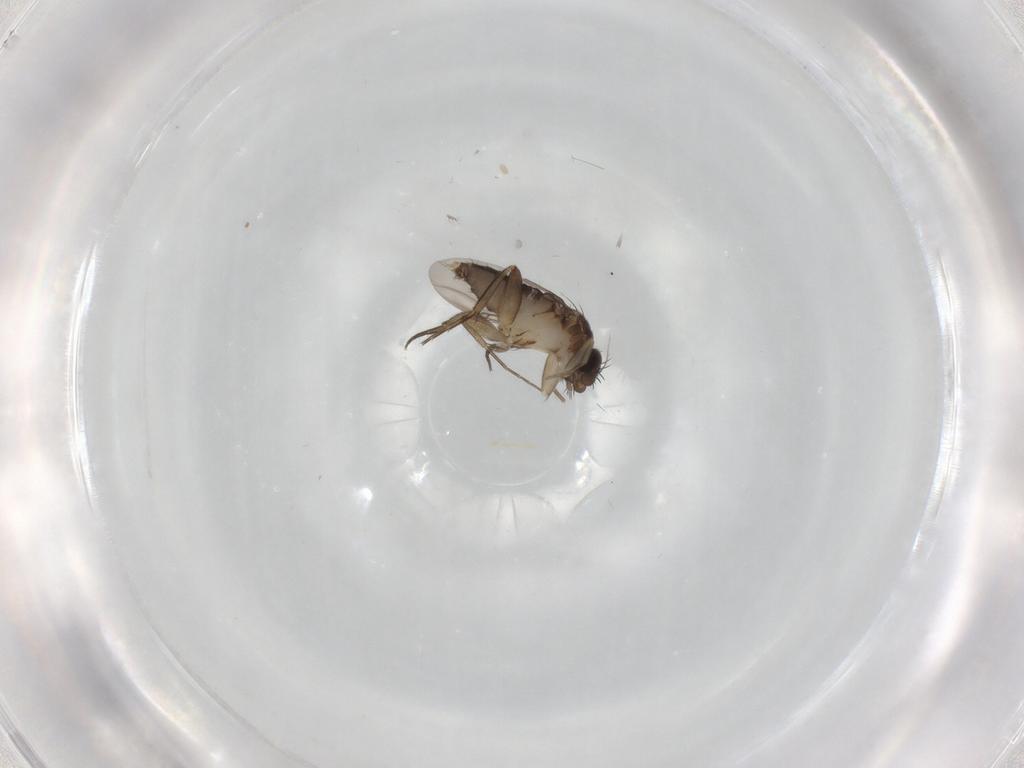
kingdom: Animalia
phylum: Arthropoda
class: Insecta
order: Diptera
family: Phoridae
